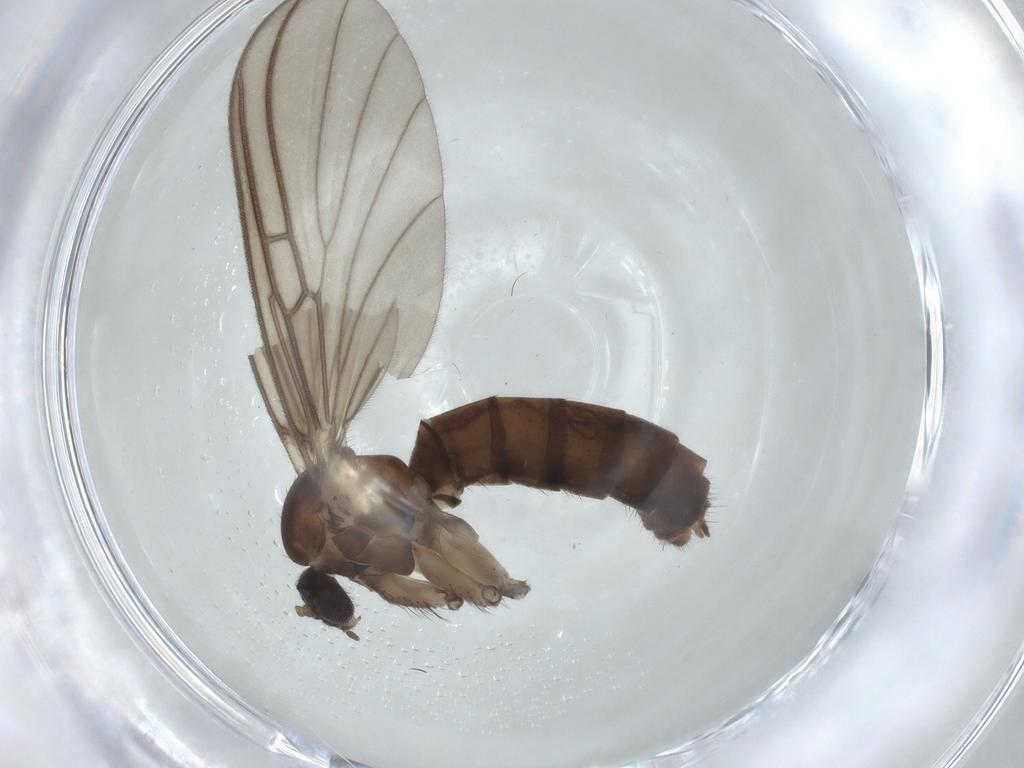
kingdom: Animalia
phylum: Arthropoda
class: Insecta
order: Diptera
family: Mycetophilidae
